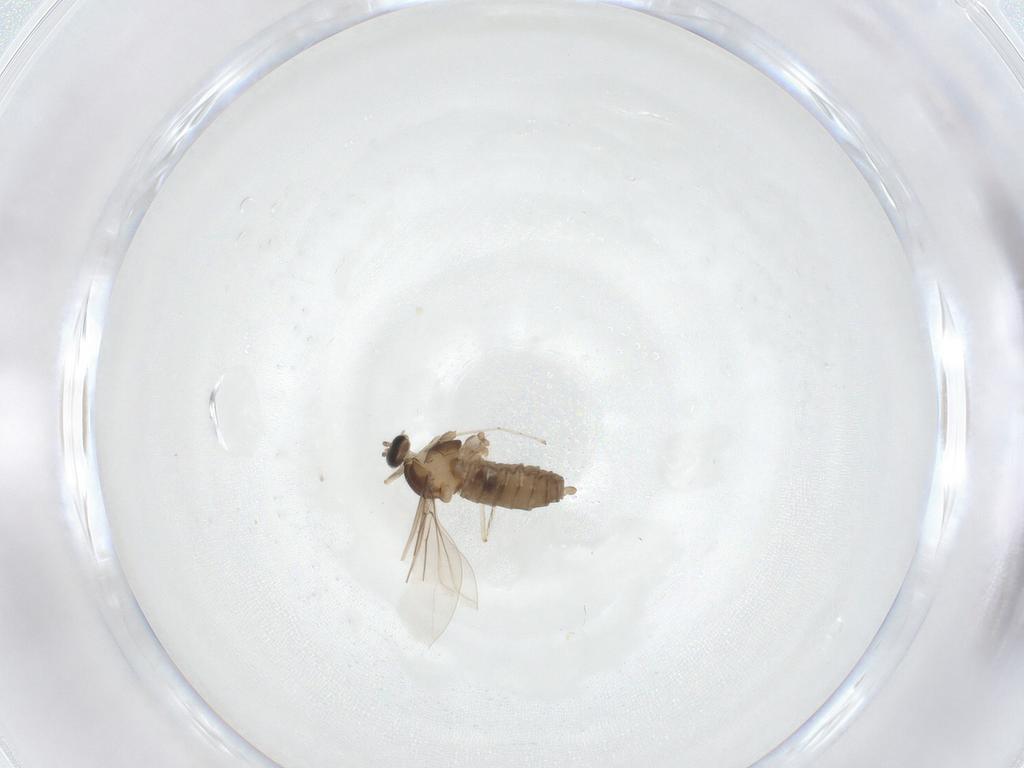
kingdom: Animalia
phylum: Arthropoda
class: Insecta
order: Diptera
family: Cecidomyiidae
